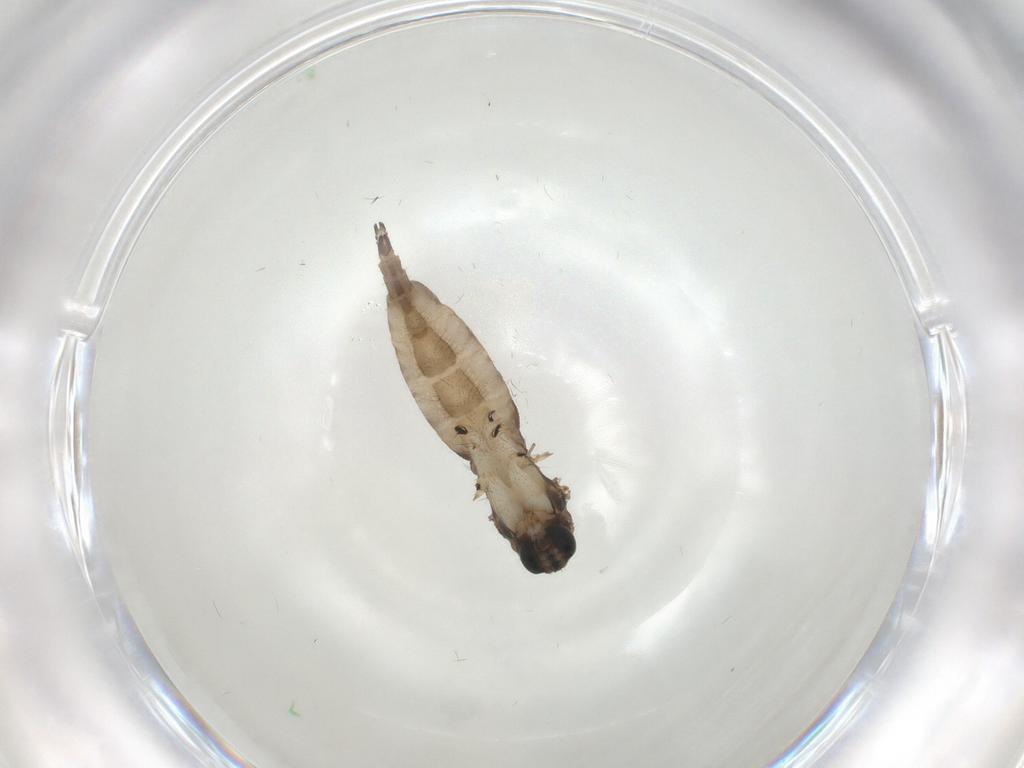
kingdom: Animalia
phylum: Arthropoda
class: Insecta
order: Diptera
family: Sciaridae
